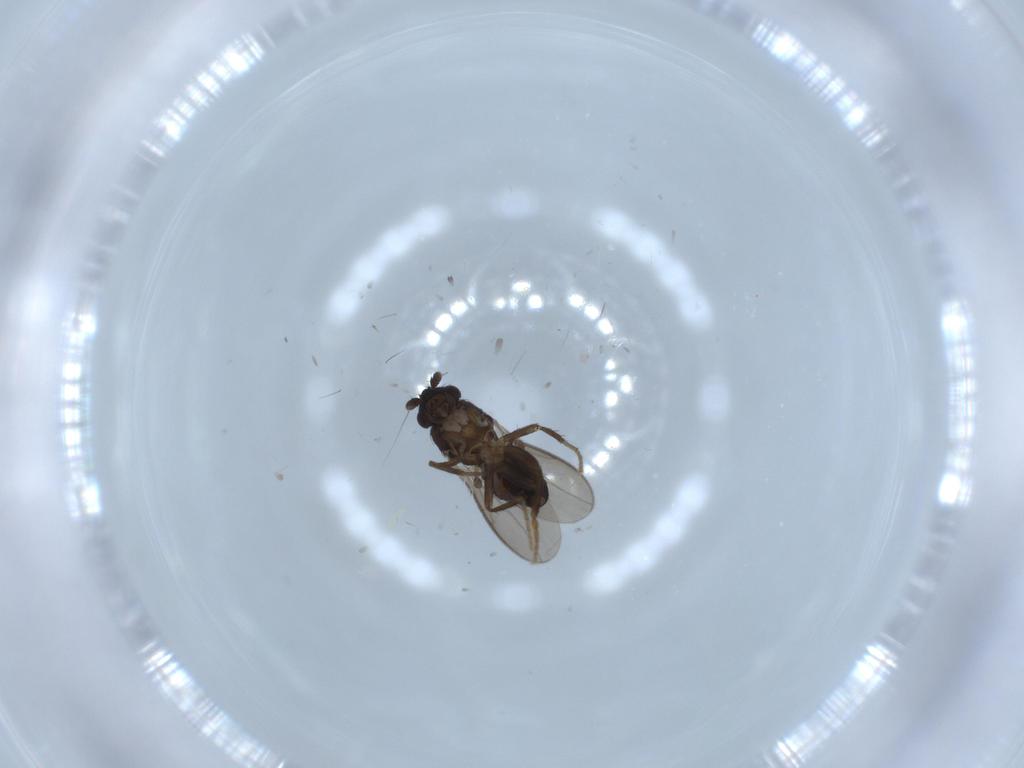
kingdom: Animalia
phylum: Arthropoda
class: Insecta
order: Diptera
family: Sphaeroceridae
